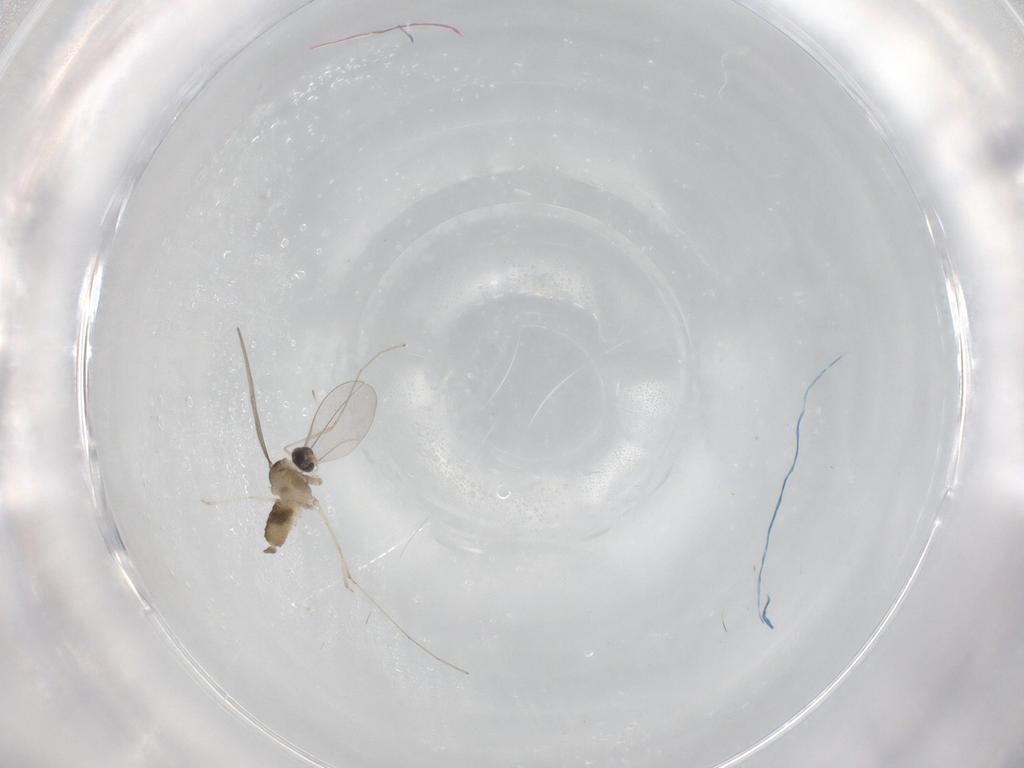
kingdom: Animalia
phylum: Arthropoda
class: Insecta
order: Diptera
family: Cecidomyiidae
